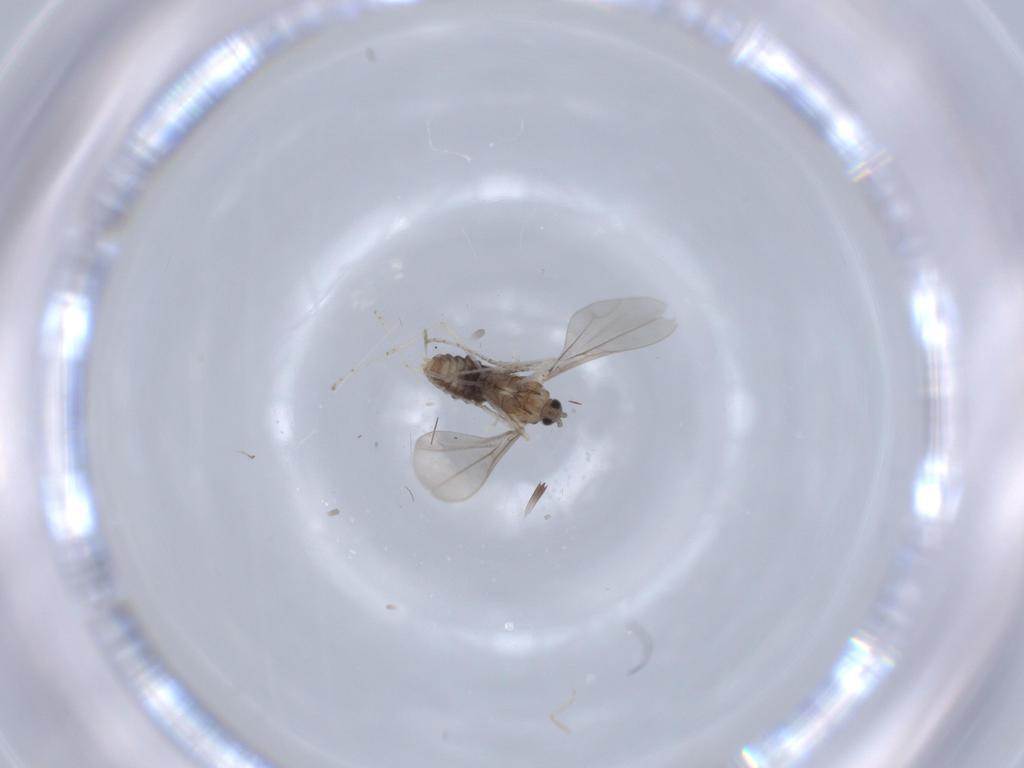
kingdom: Animalia
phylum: Arthropoda
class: Insecta
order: Diptera
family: Cecidomyiidae
